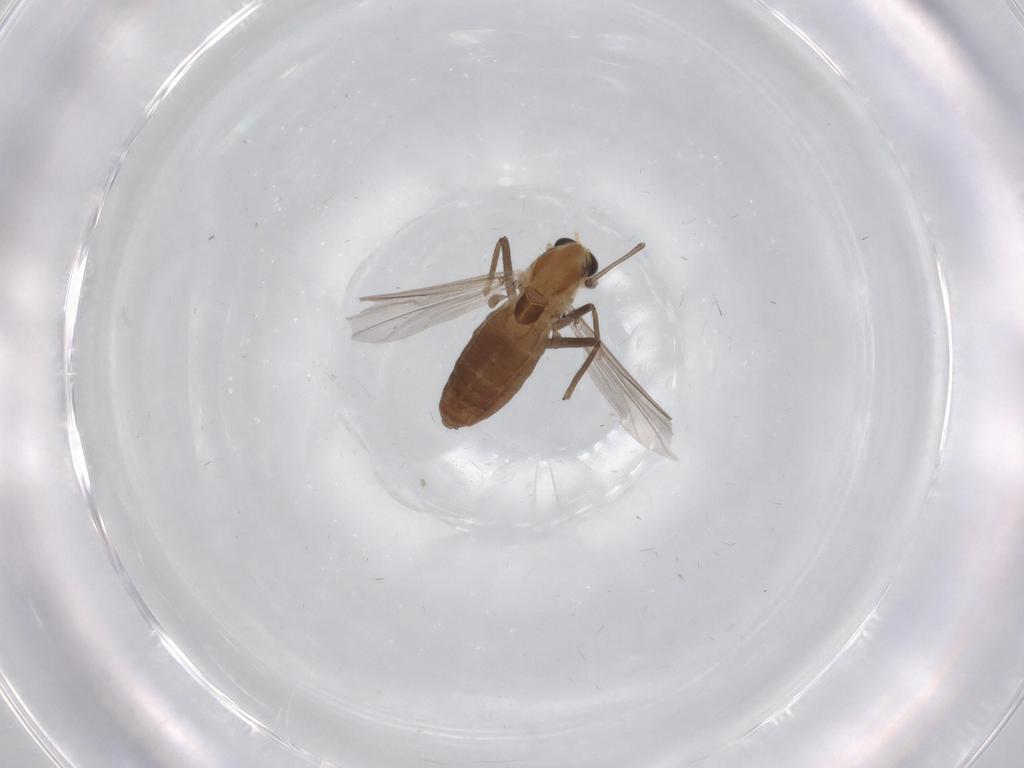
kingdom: Animalia
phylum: Arthropoda
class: Insecta
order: Diptera
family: Chironomidae
